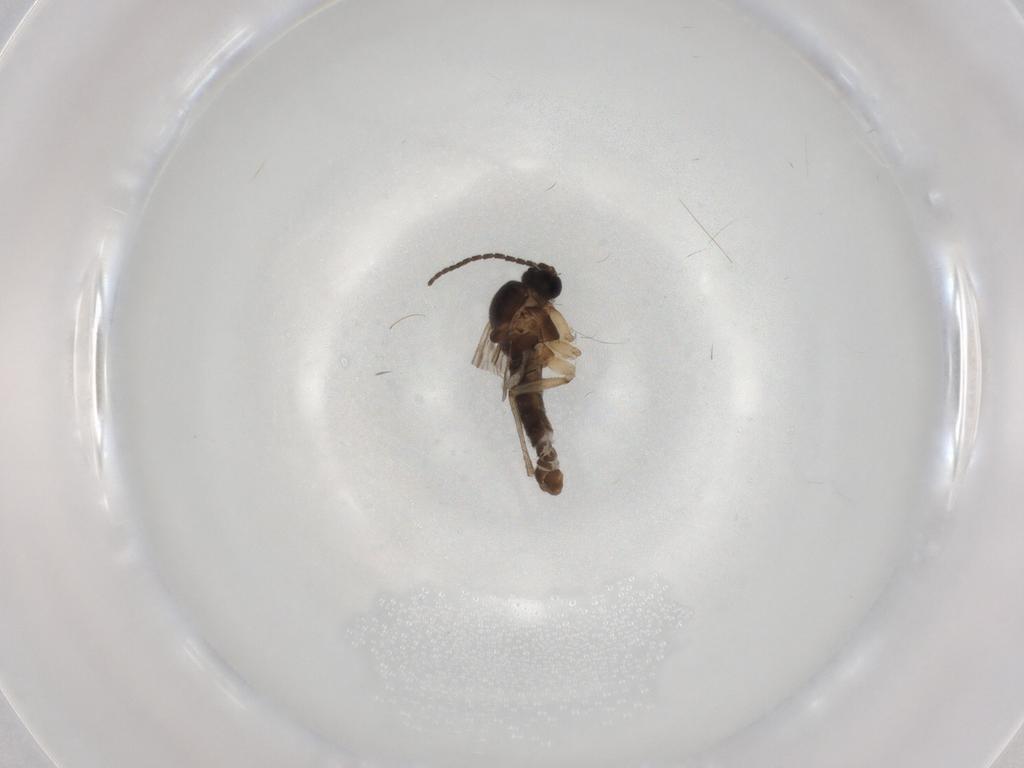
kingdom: Animalia
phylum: Arthropoda
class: Insecta
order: Diptera
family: Sciaridae
